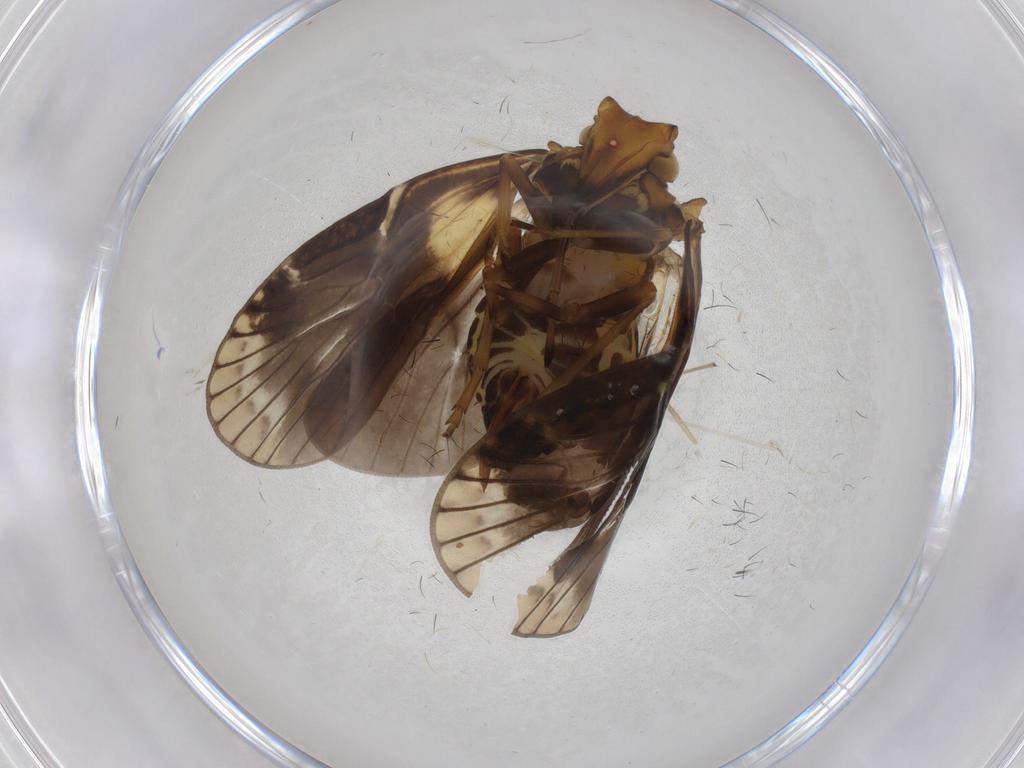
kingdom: Animalia
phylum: Arthropoda
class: Insecta
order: Hemiptera
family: Cixiidae
